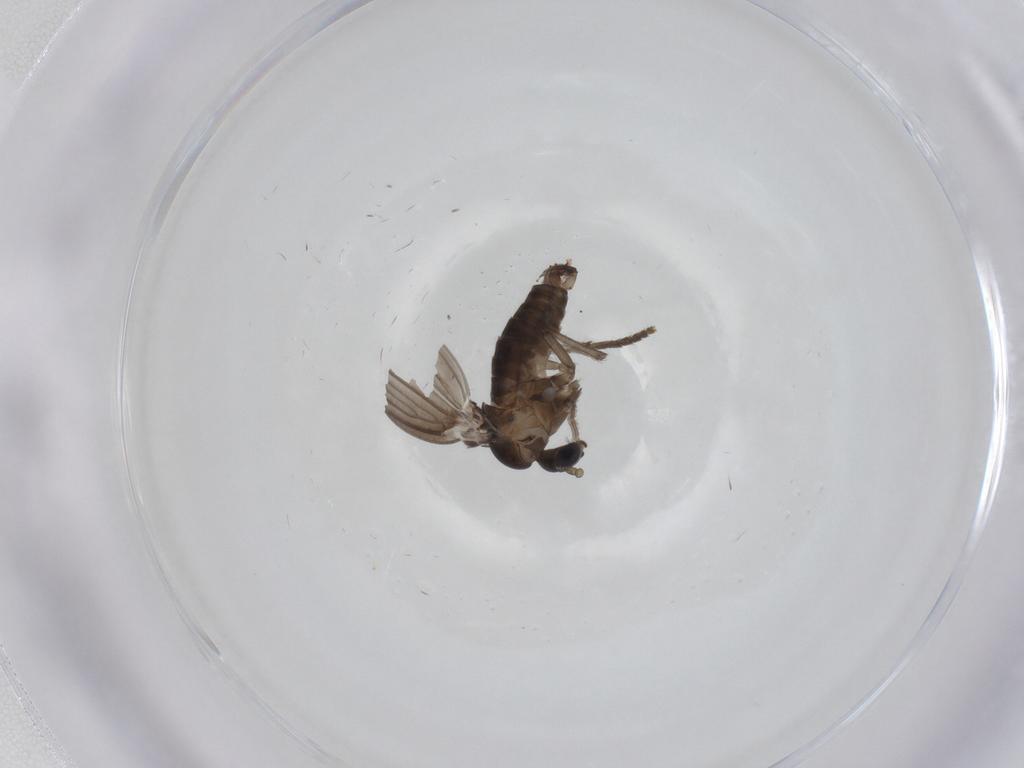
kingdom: Animalia
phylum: Arthropoda
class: Insecta
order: Diptera
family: Psychodidae
